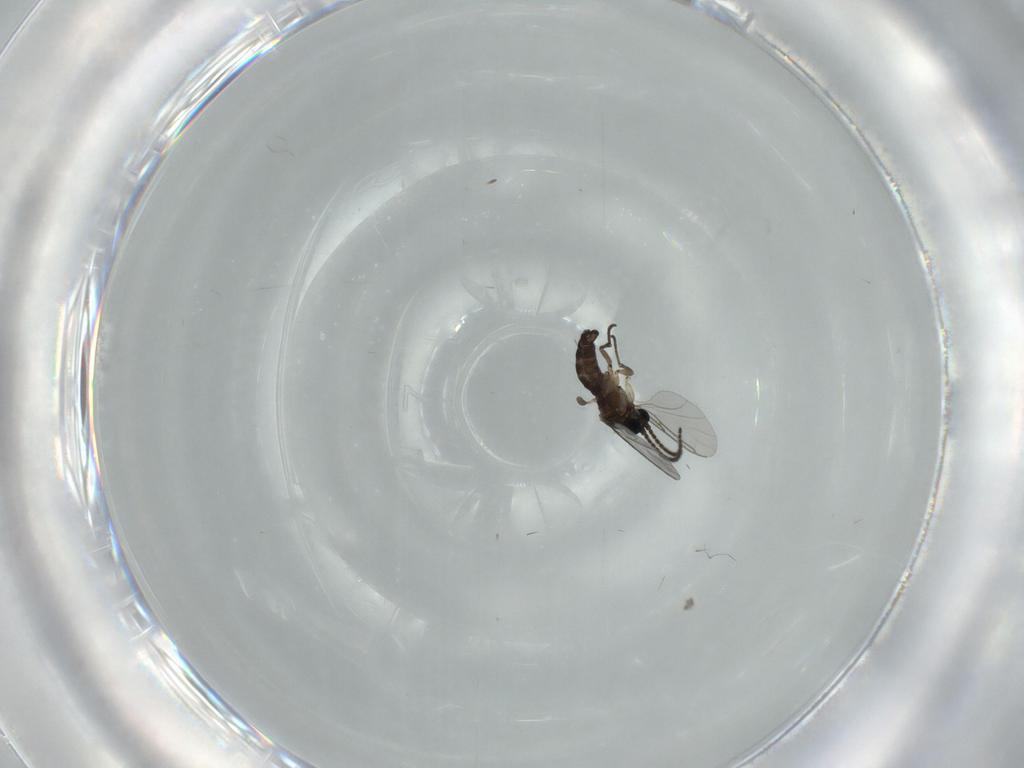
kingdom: Animalia
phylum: Arthropoda
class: Insecta
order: Diptera
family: Sciaridae
